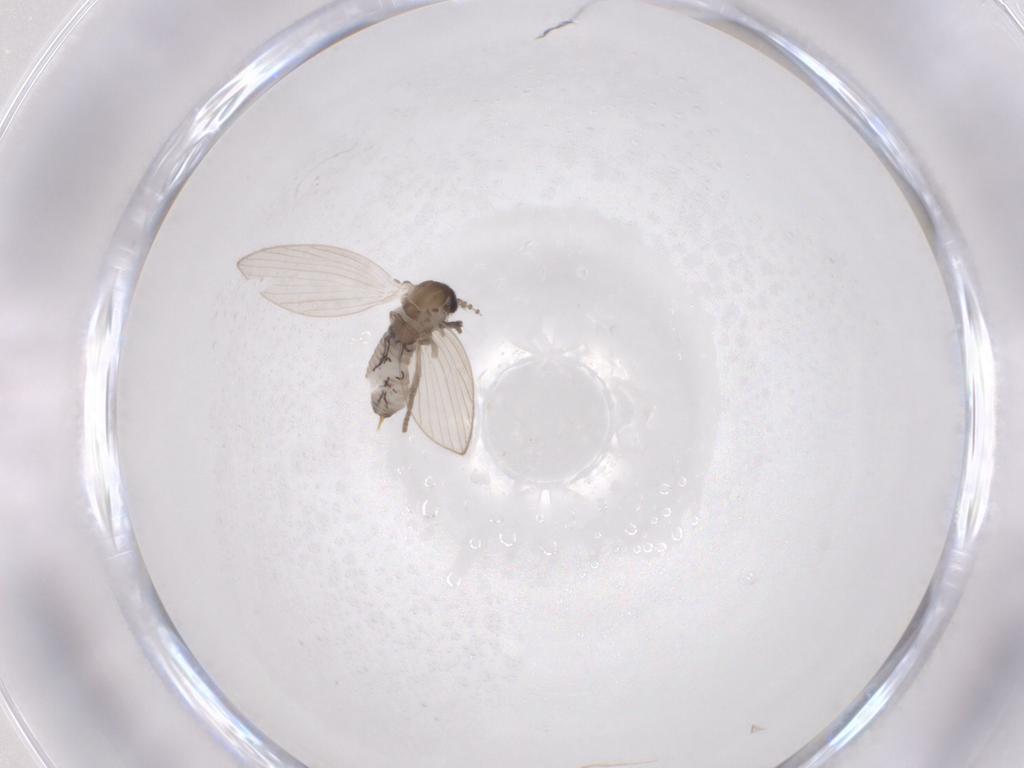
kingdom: Animalia
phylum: Arthropoda
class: Insecta
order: Diptera
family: Psychodidae
